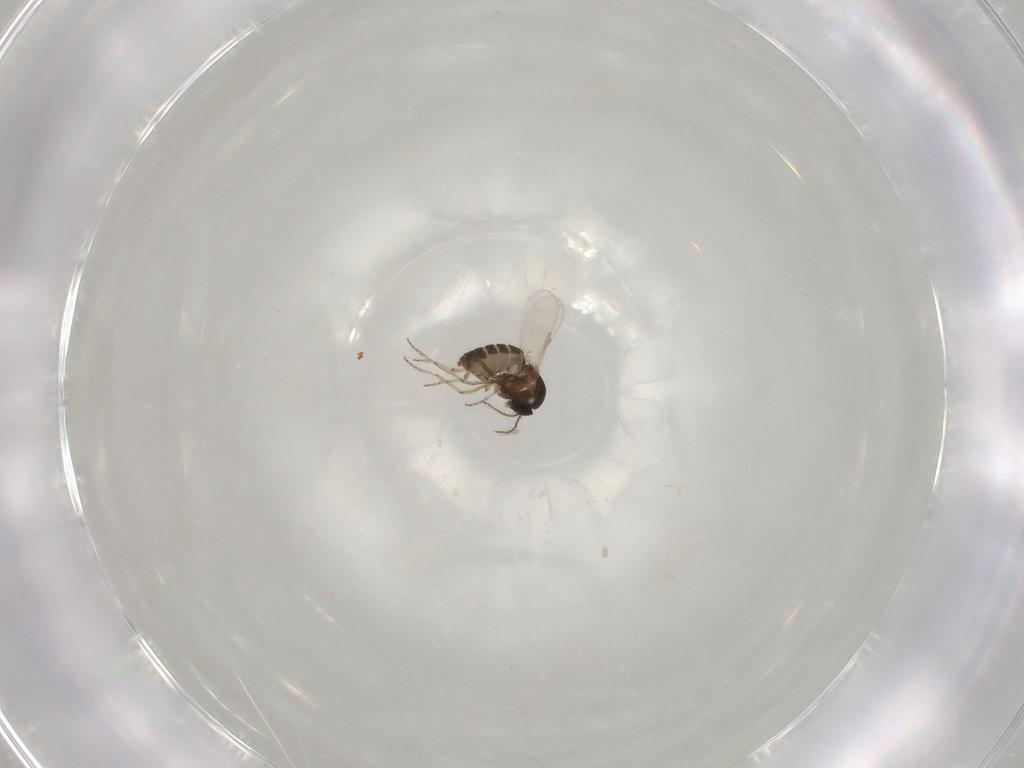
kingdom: Animalia
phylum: Arthropoda
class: Insecta
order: Diptera
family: Ceratopogonidae
